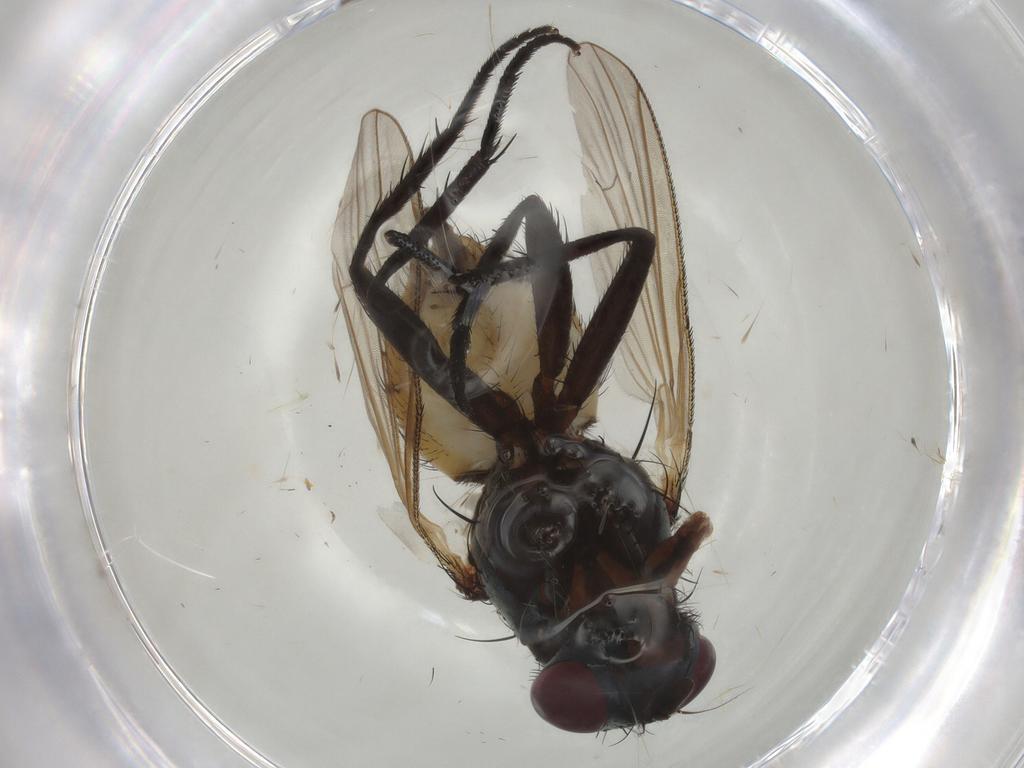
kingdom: Animalia
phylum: Arthropoda
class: Insecta
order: Diptera
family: Anthomyiidae
